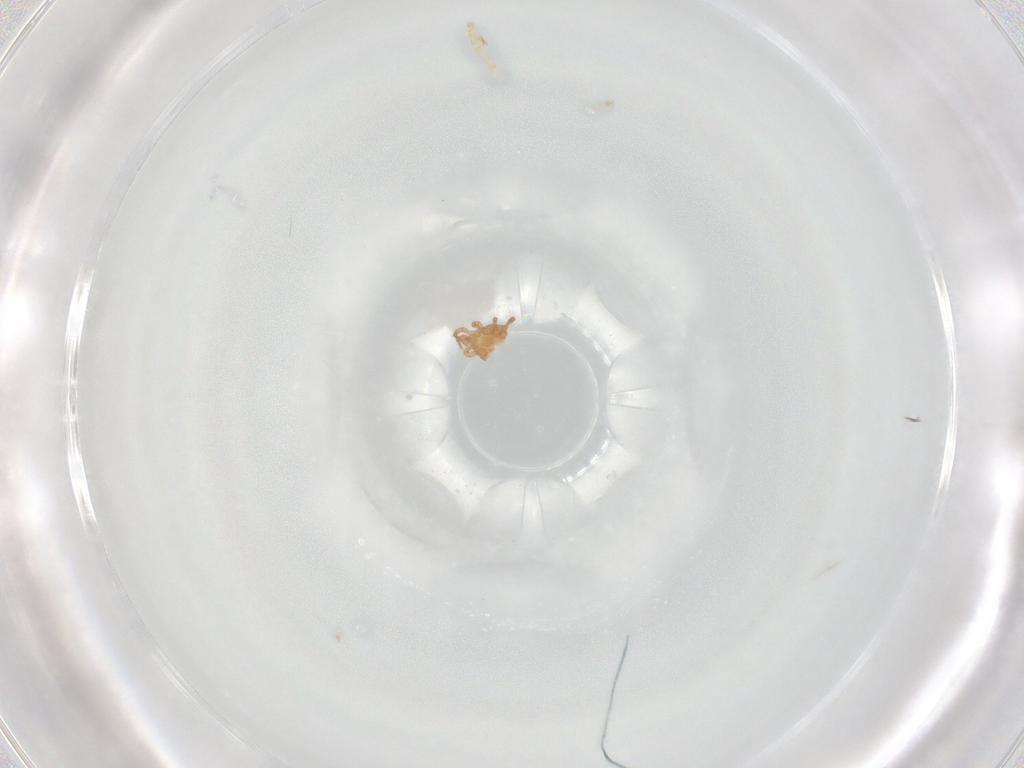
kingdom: Animalia
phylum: Arthropoda
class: Arachnida
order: Mesostigmata
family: Laelapidae
